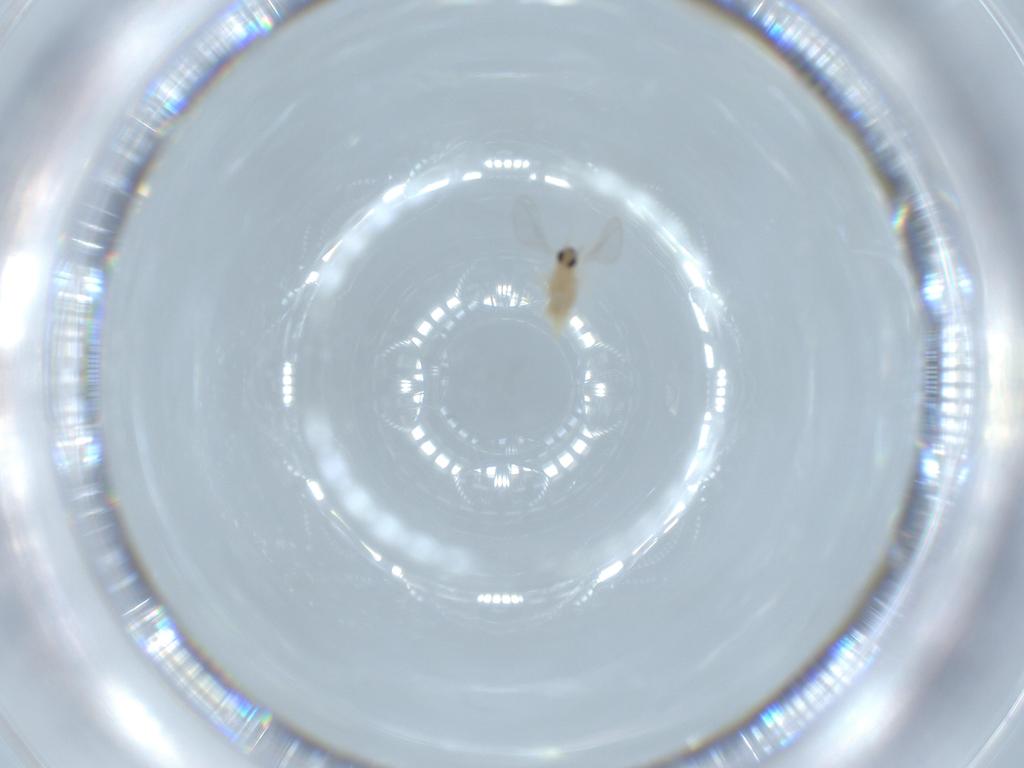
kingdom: Animalia
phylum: Arthropoda
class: Insecta
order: Diptera
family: Cecidomyiidae
